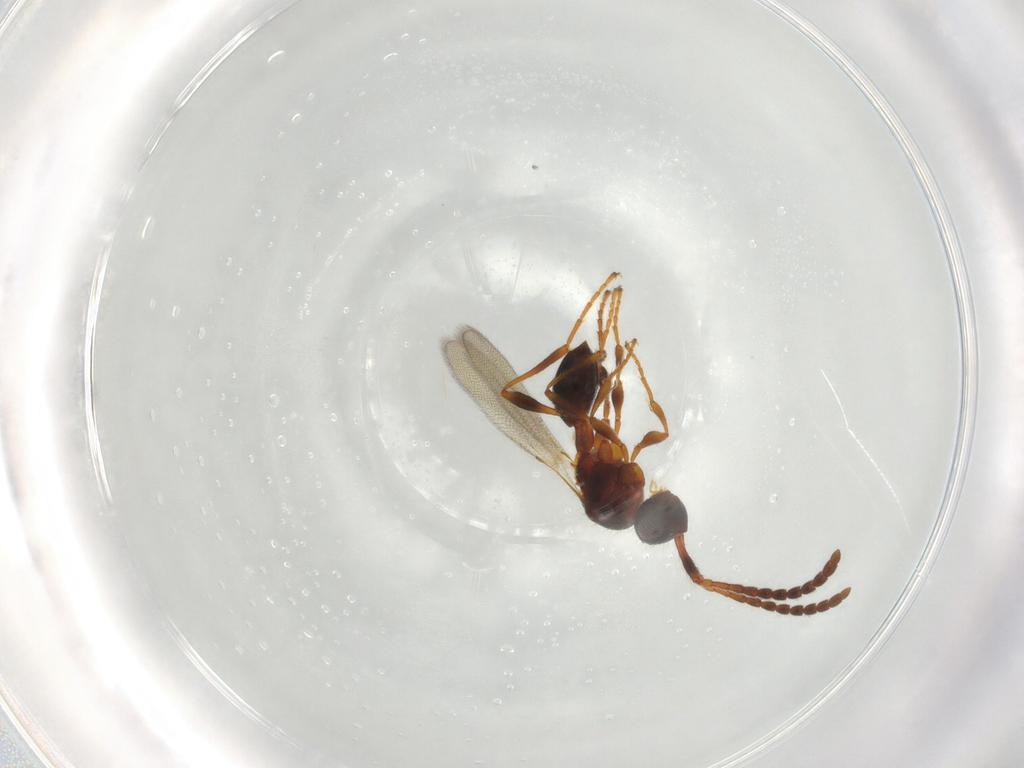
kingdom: Animalia
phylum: Arthropoda
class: Insecta
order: Hymenoptera
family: Diapriidae
